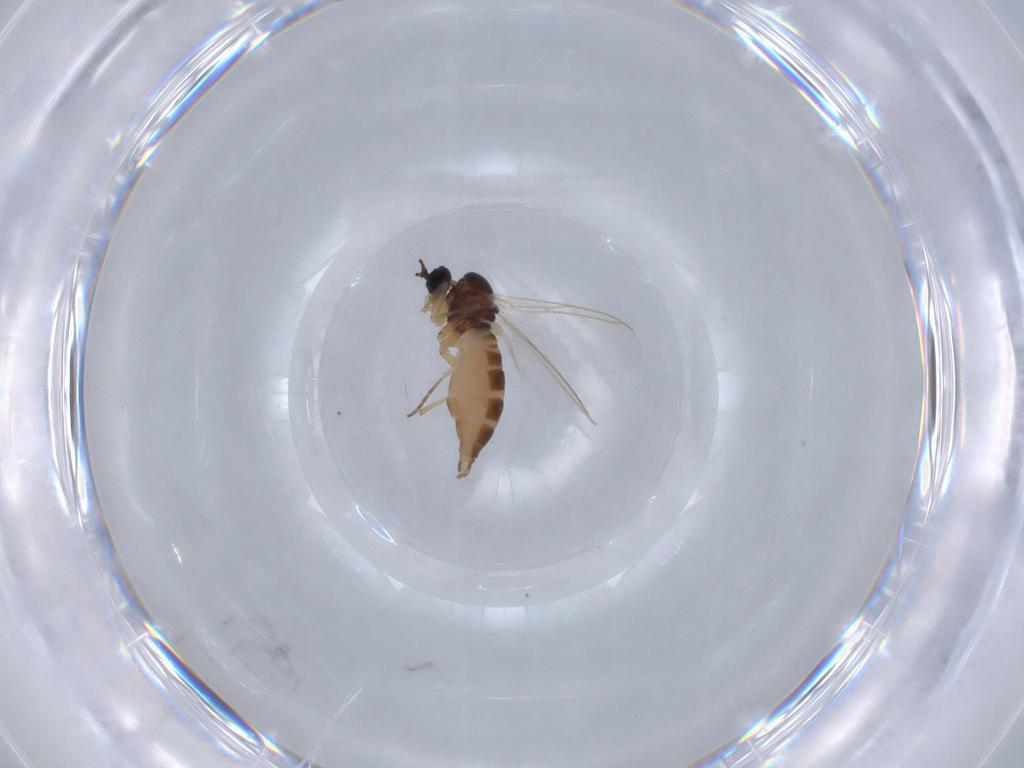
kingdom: Animalia
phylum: Arthropoda
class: Insecta
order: Diptera
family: Sciaridae
